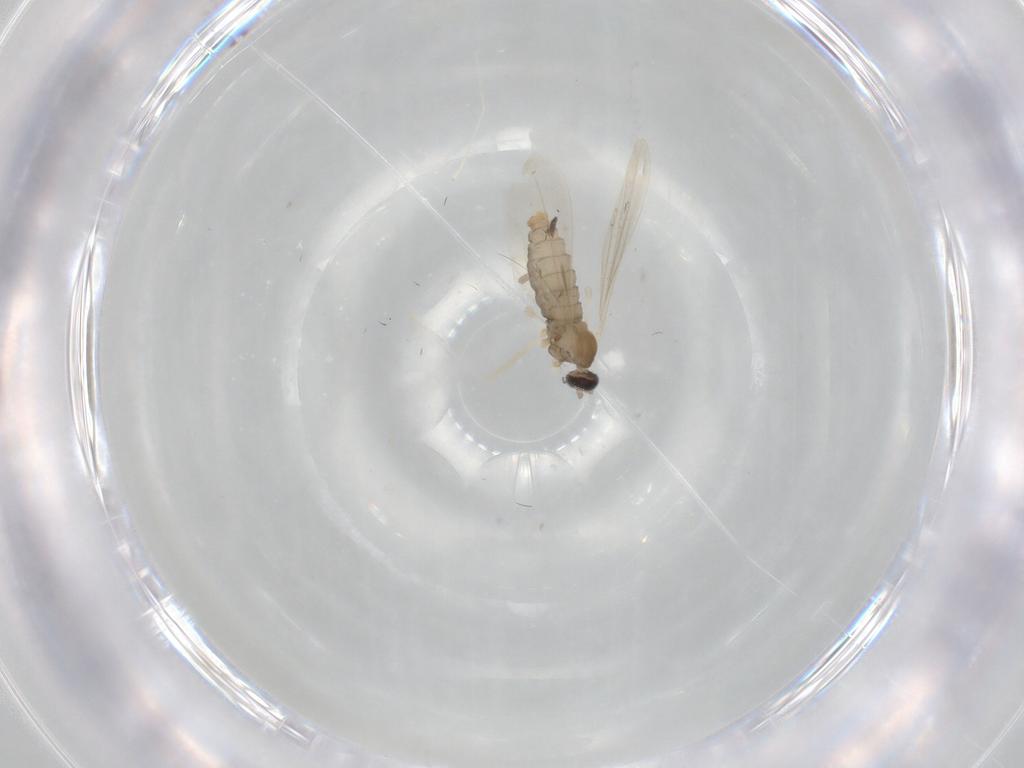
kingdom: Animalia
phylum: Arthropoda
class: Insecta
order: Diptera
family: Cecidomyiidae
